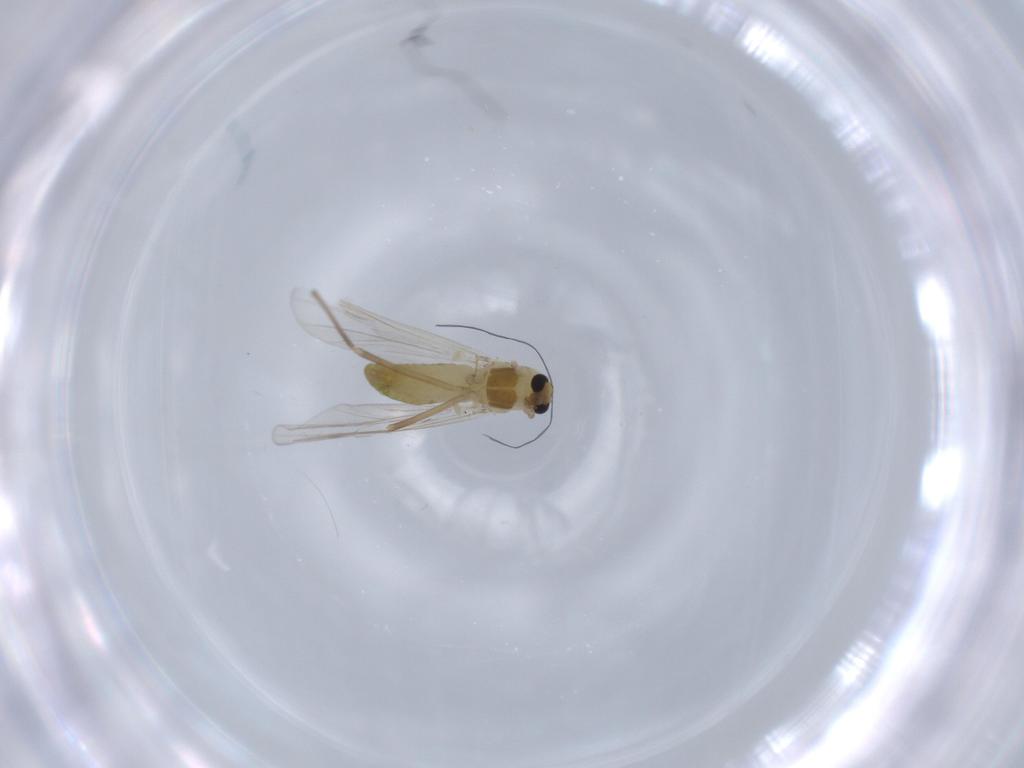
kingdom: Animalia
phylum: Arthropoda
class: Insecta
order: Diptera
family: Chironomidae
